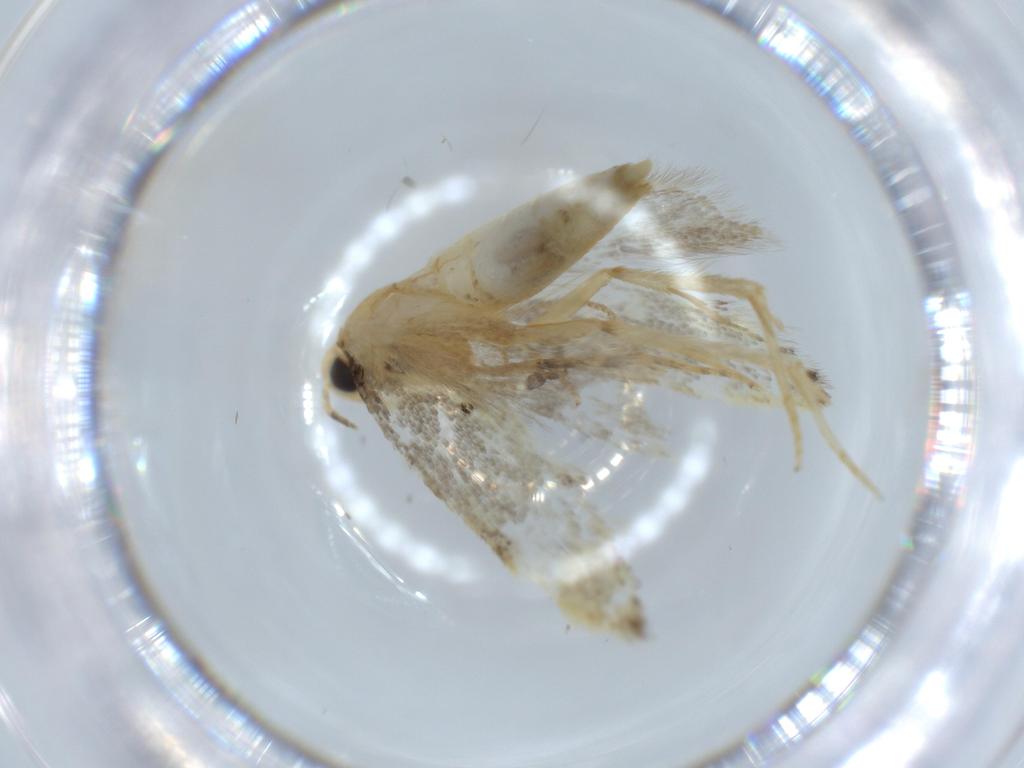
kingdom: Animalia
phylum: Arthropoda
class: Insecta
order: Lepidoptera
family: Autostichidae
